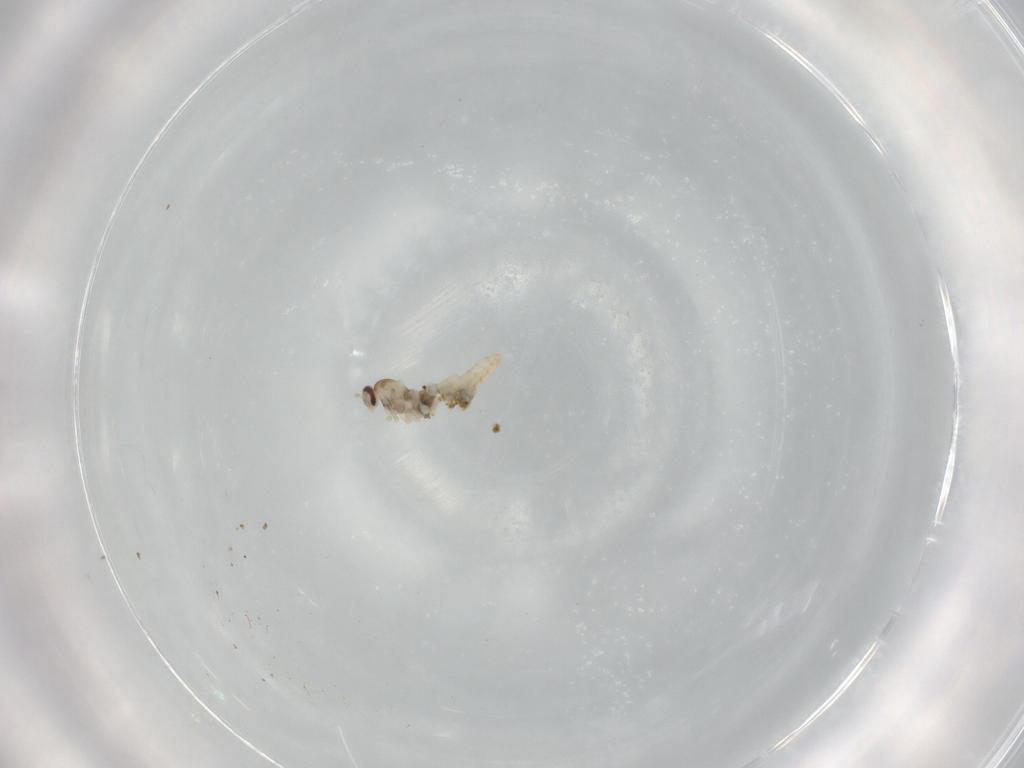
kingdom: Animalia
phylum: Arthropoda
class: Insecta
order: Diptera
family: Cecidomyiidae
